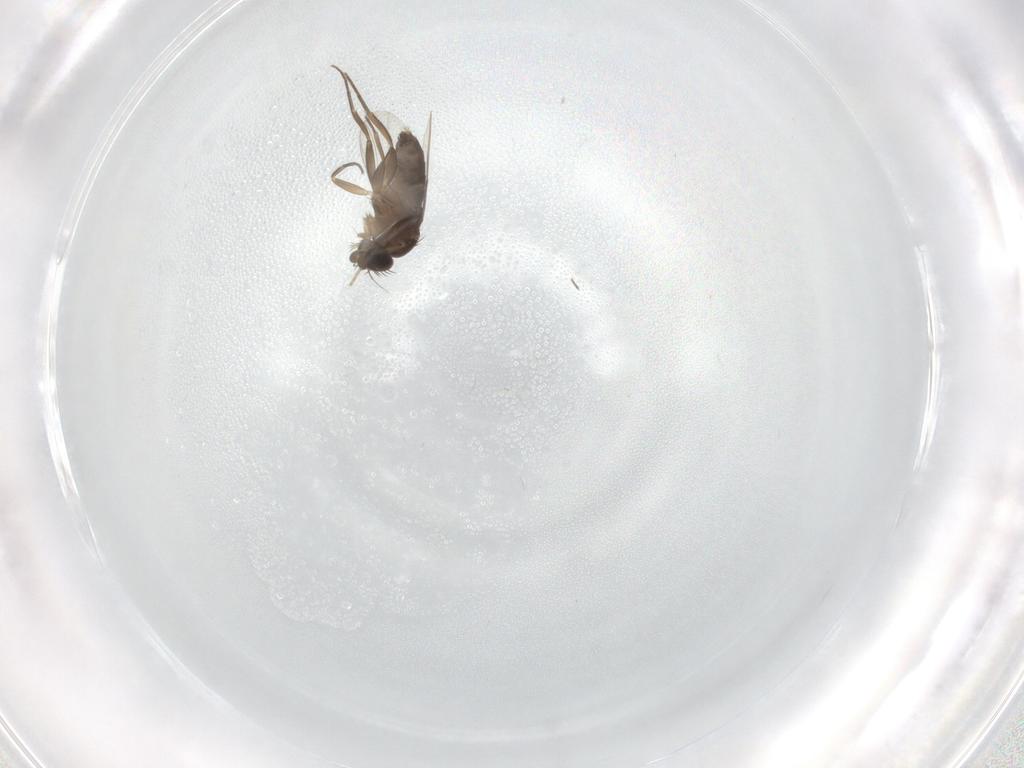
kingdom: Animalia
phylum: Arthropoda
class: Insecta
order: Diptera
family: Phoridae
